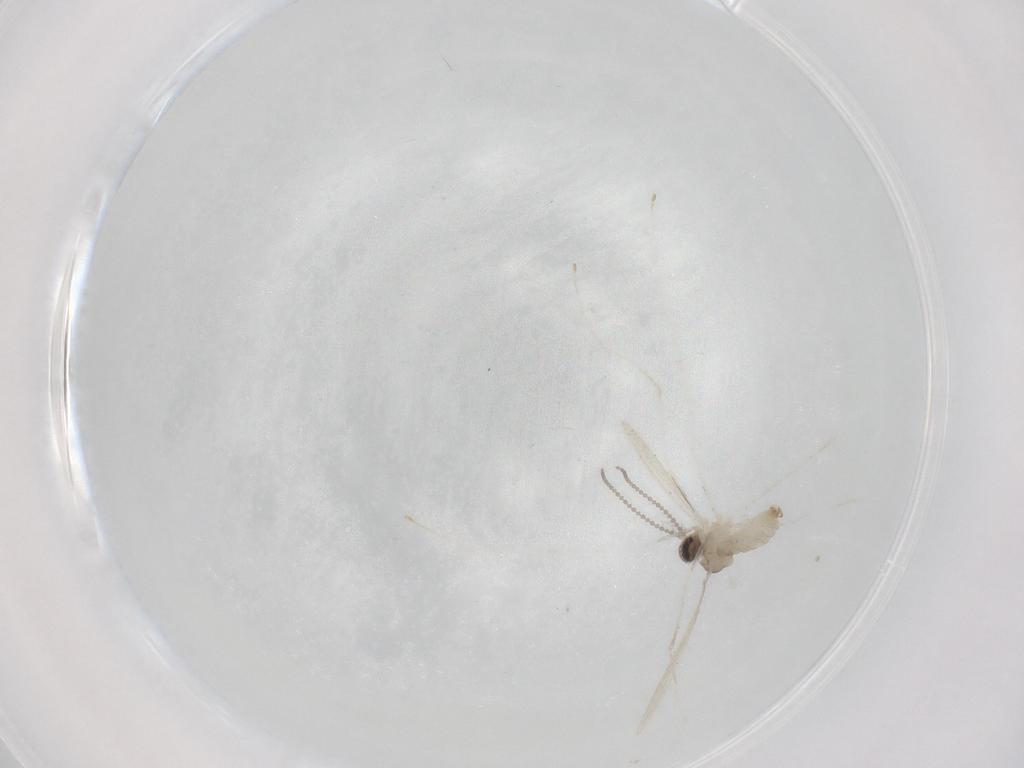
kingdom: Animalia
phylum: Arthropoda
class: Insecta
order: Diptera
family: Cecidomyiidae
